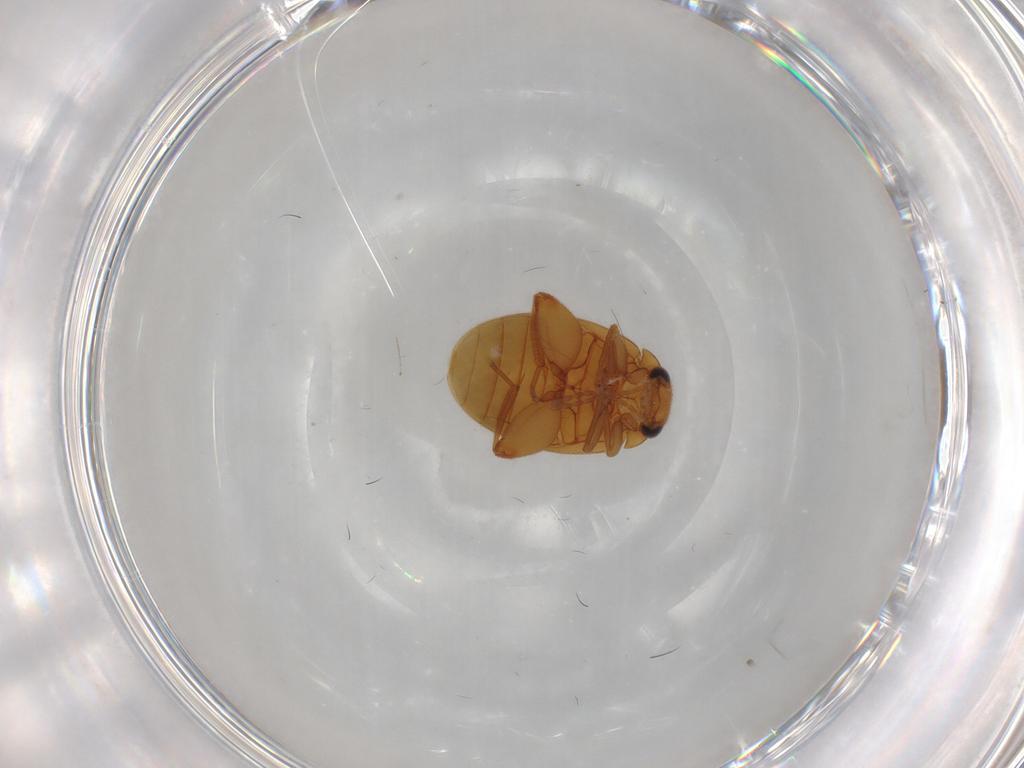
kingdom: Animalia
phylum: Arthropoda
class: Insecta
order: Coleoptera
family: Scirtidae
